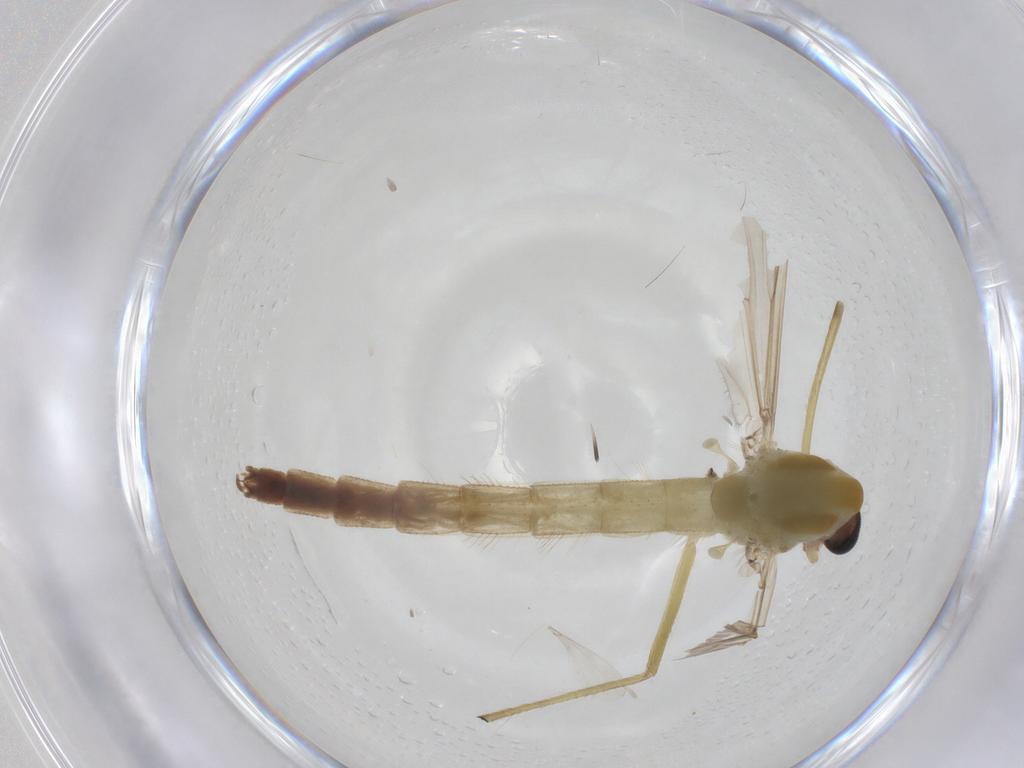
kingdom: Animalia
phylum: Arthropoda
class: Insecta
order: Diptera
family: Chironomidae
